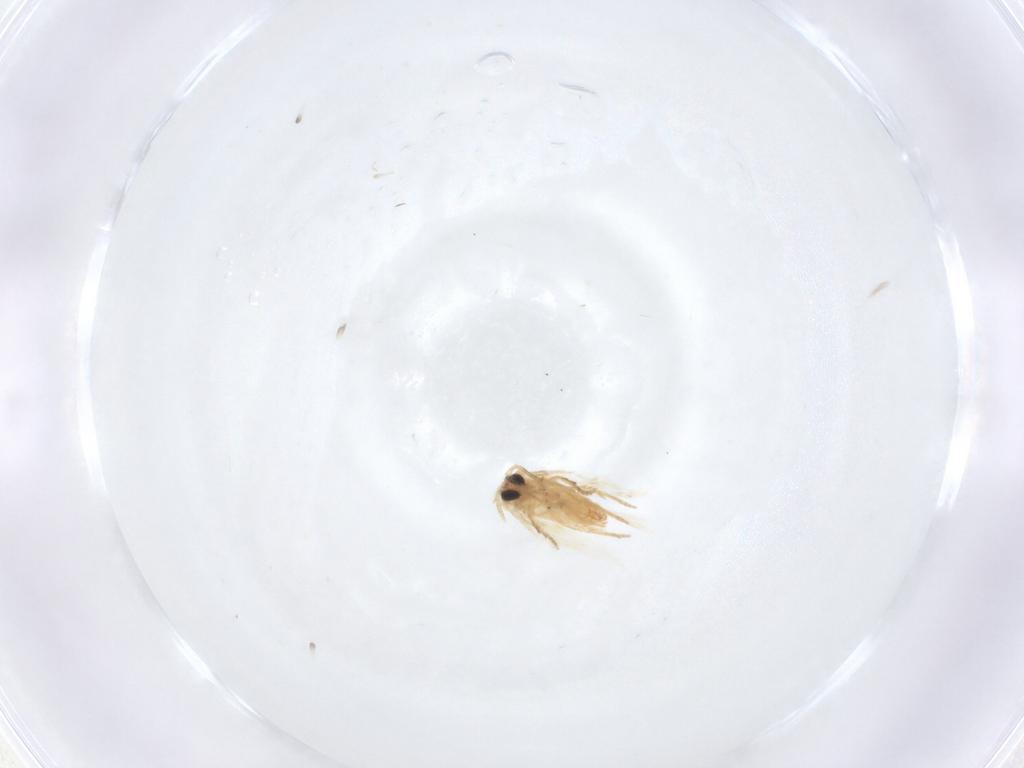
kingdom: Animalia
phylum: Arthropoda
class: Insecta
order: Lepidoptera
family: Crambidae
